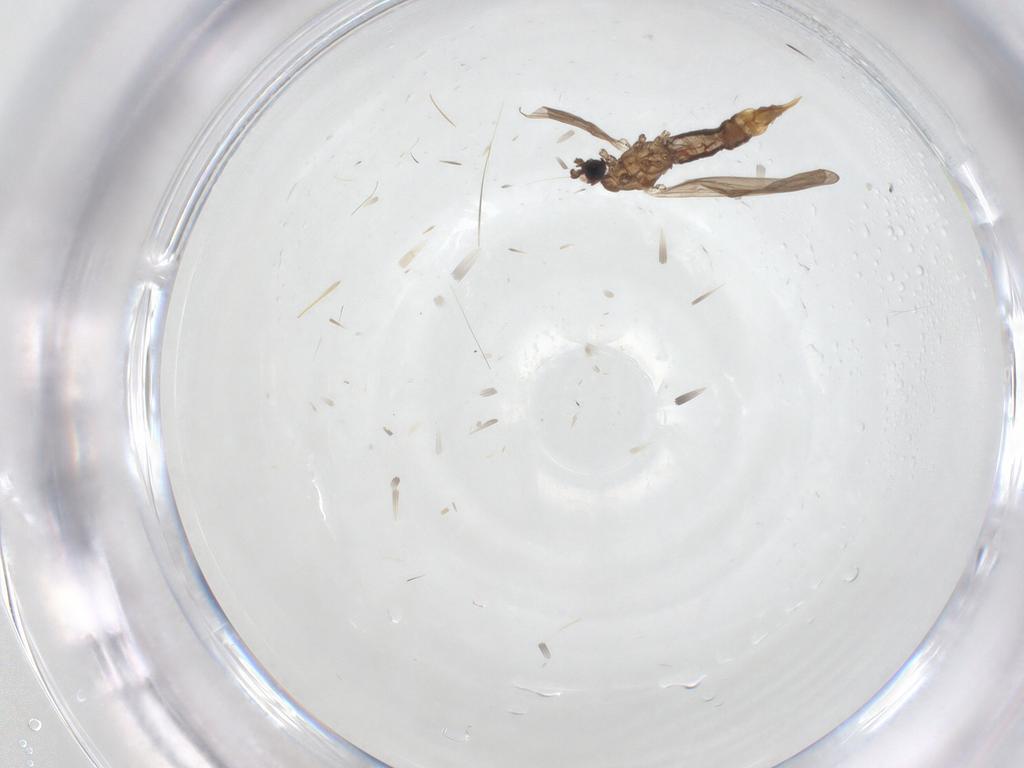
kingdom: Animalia
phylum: Arthropoda
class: Insecta
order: Diptera
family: Limoniidae
